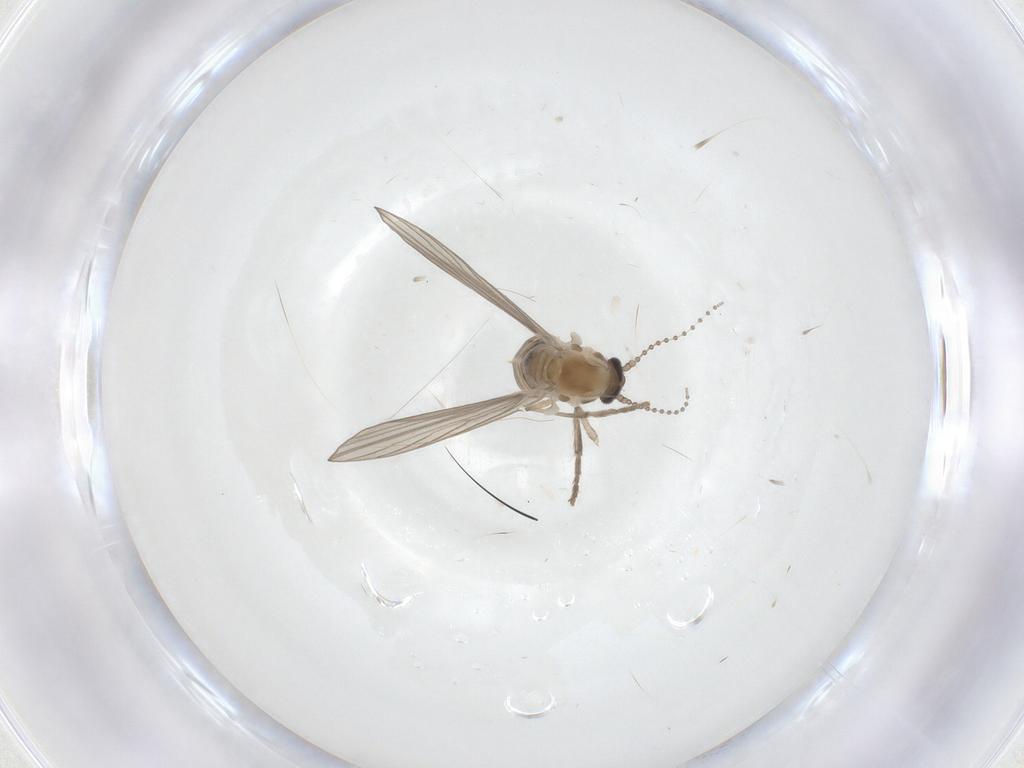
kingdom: Animalia
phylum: Arthropoda
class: Insecta
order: Diptera
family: Psychodidae
